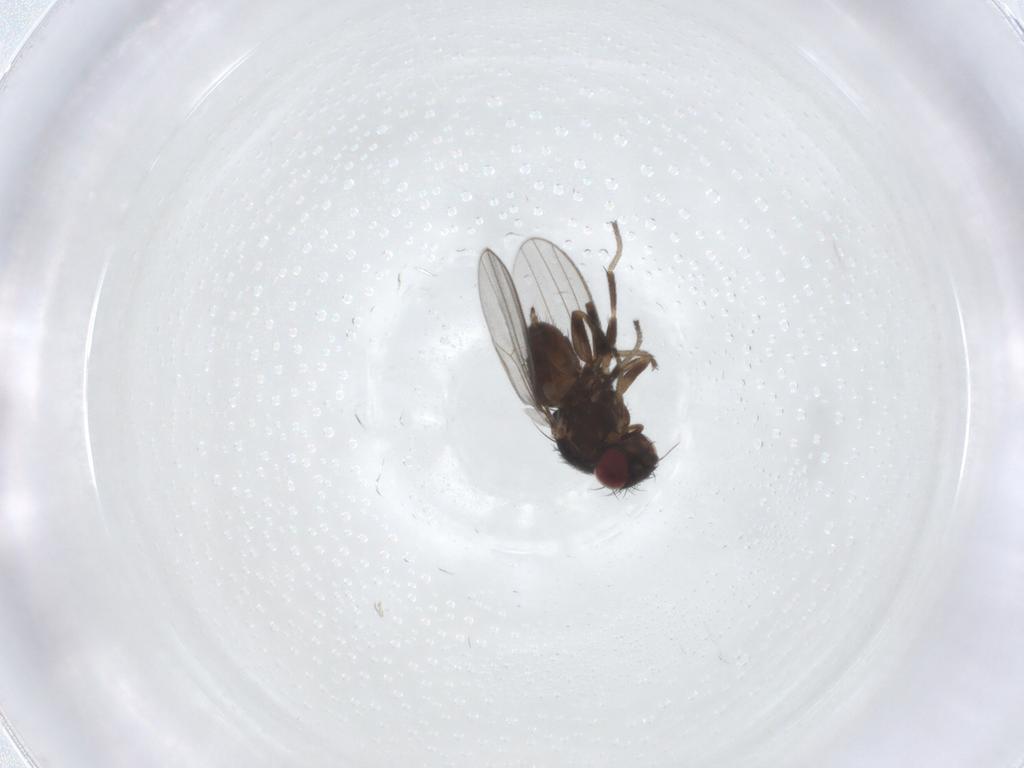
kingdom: Animalia
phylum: Arthropoda
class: Insecta
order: Diptera
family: Milichiidae
